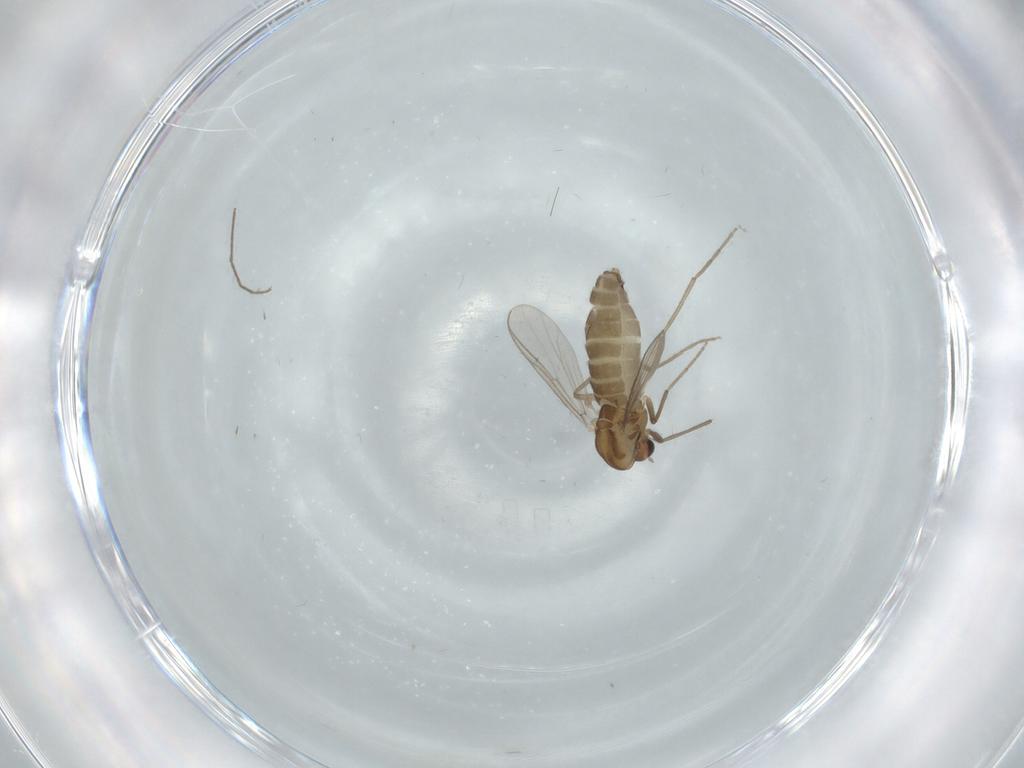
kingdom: Animalia
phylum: Arthropoda
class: Insecta
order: Diptera
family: Chironomidae
